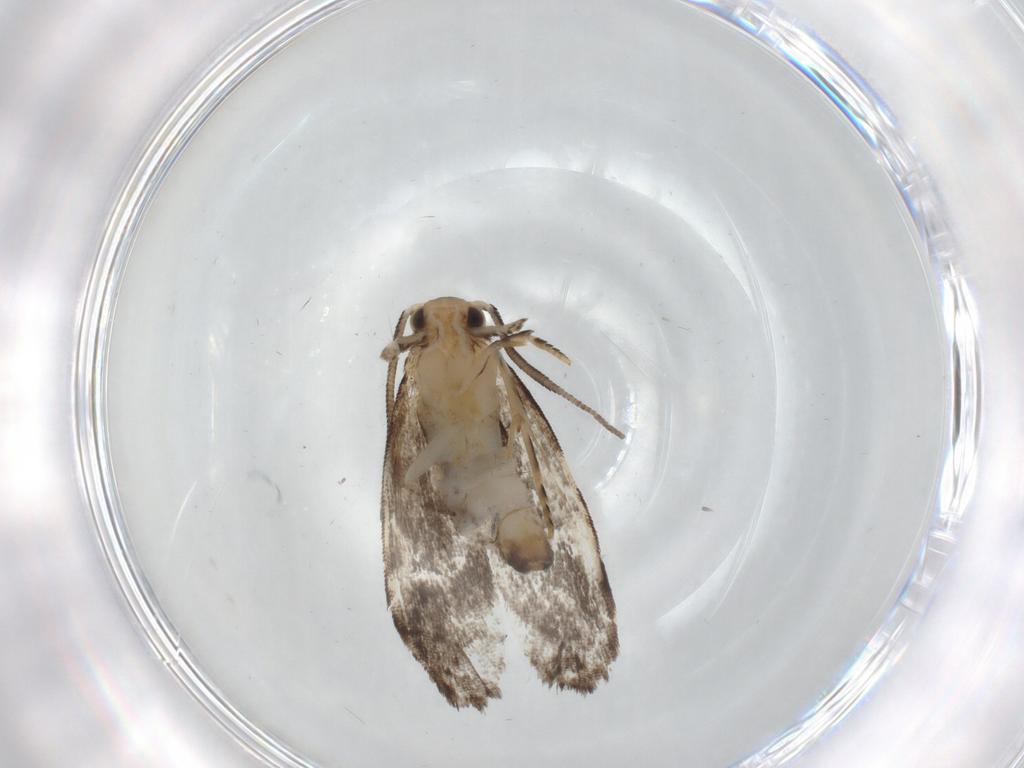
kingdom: Animalia
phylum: Arthropoda
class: Insecta
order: Lepidoptera
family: Dryadaulidae
